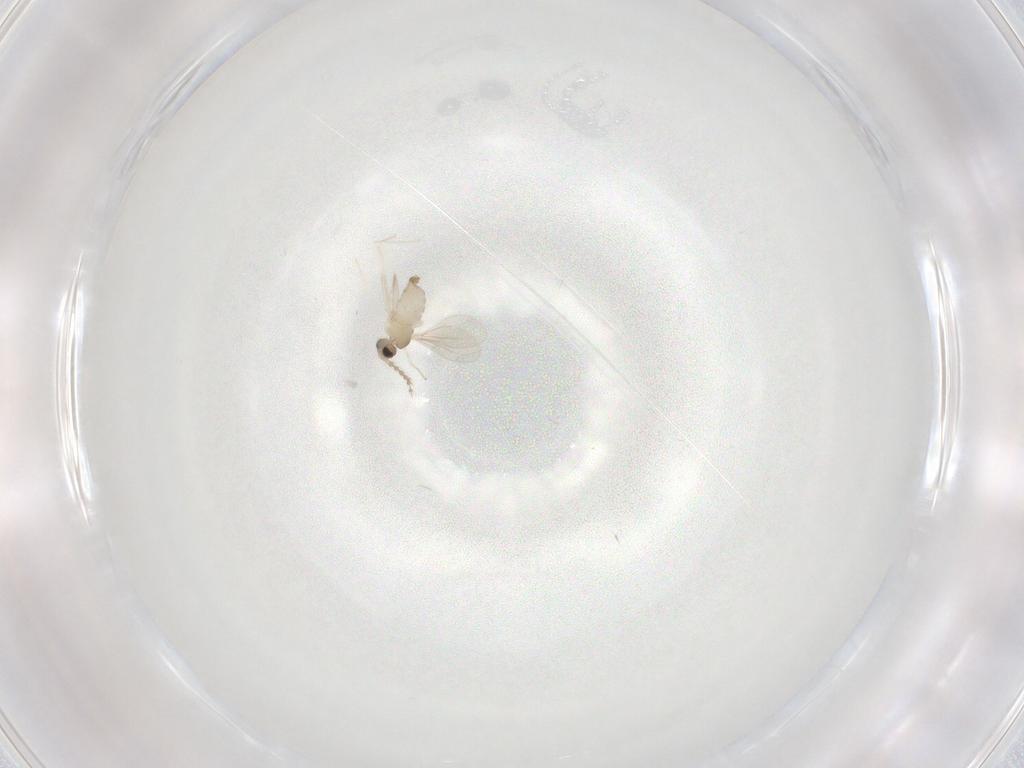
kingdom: Animalia
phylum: Arthropoda
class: Insecta
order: Diptera
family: Cecidomyiidae
